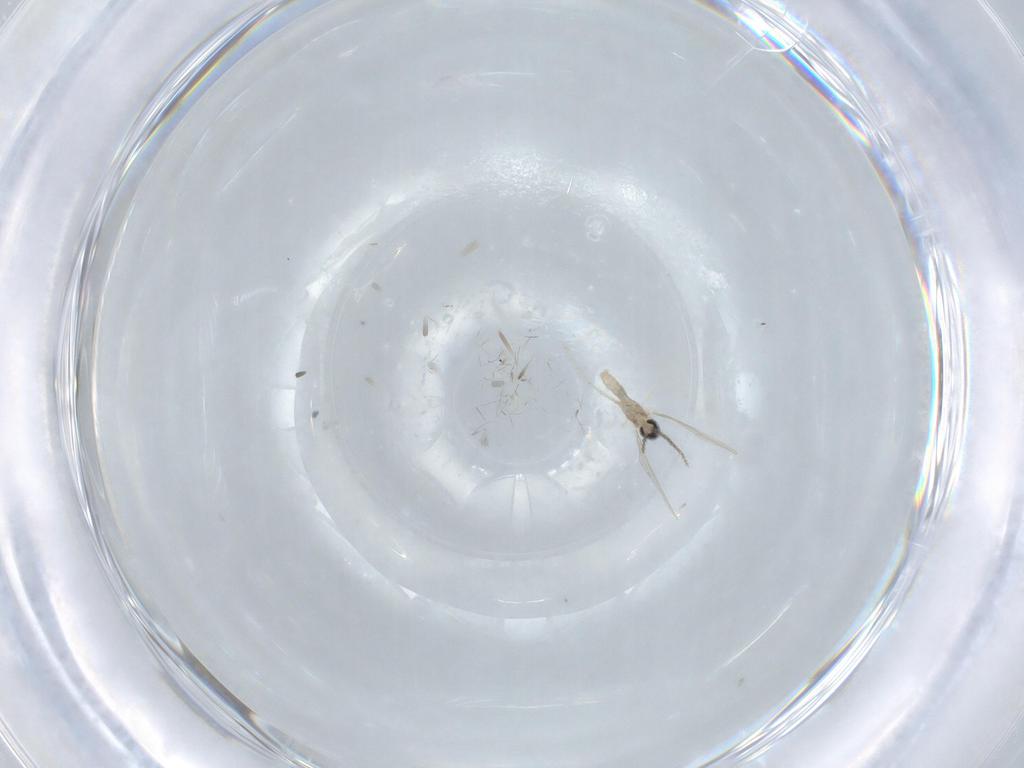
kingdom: Animalia
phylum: Arthropoda
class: Insecta
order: Diptera
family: Cecidomyiidae
